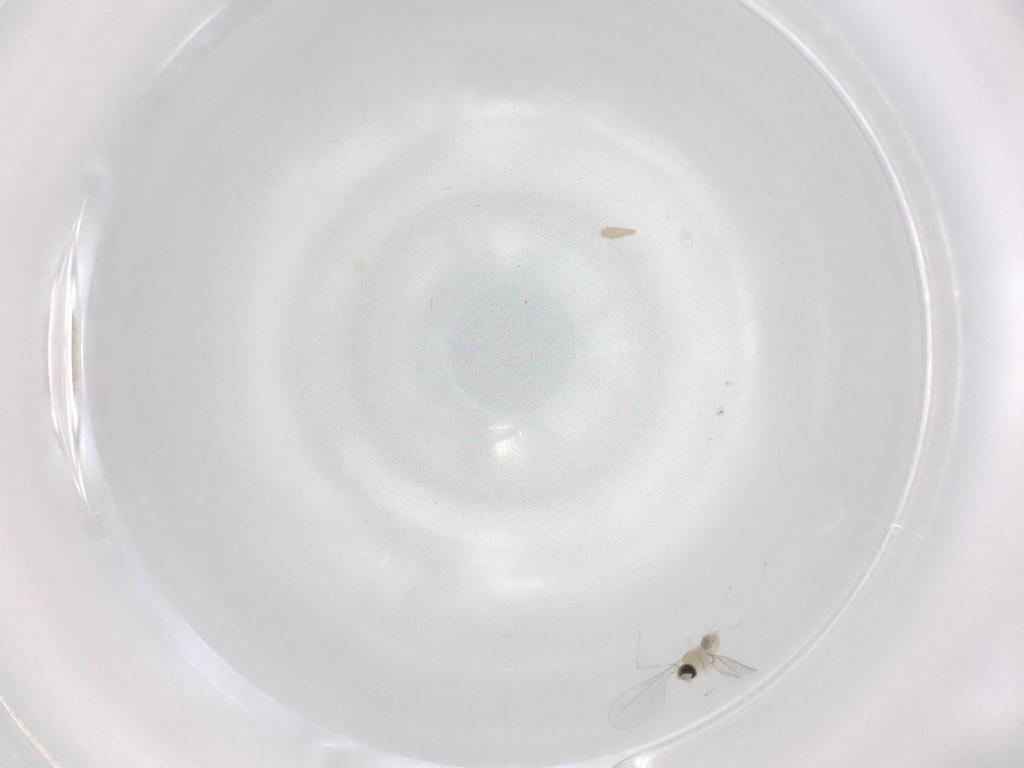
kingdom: Animalia
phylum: Arthropoda
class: Insecta
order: Diptera
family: Cecidomyiidae
